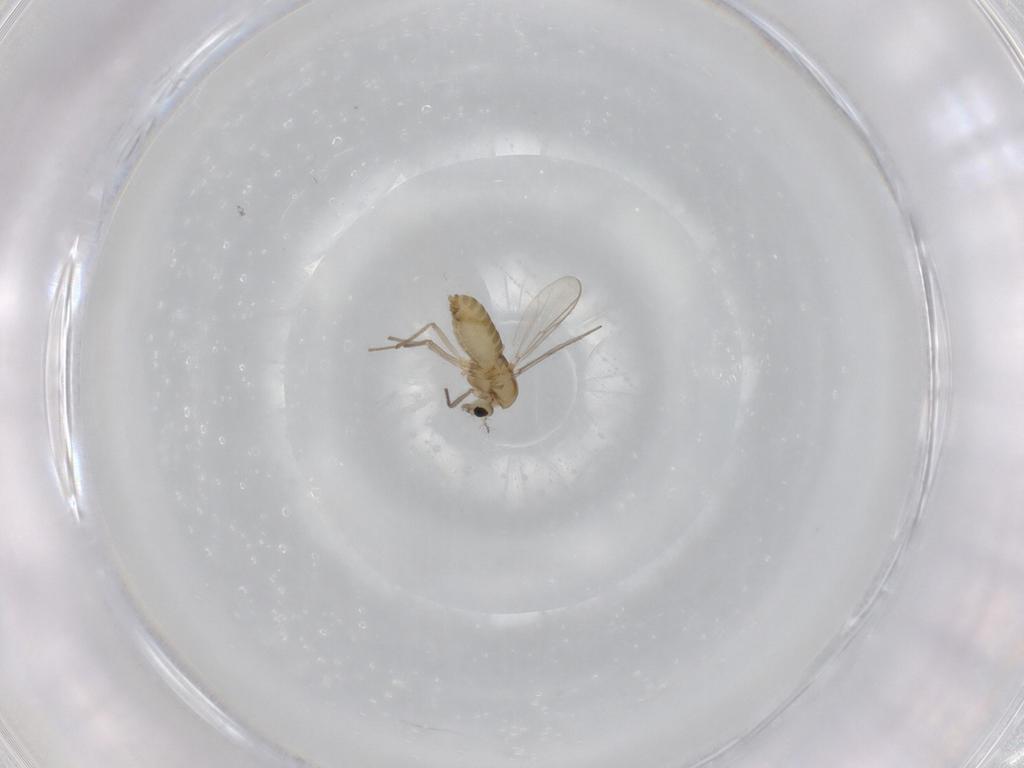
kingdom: Animalia
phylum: Arthropoda
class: Insecta
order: Diptera
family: Chironomidae
